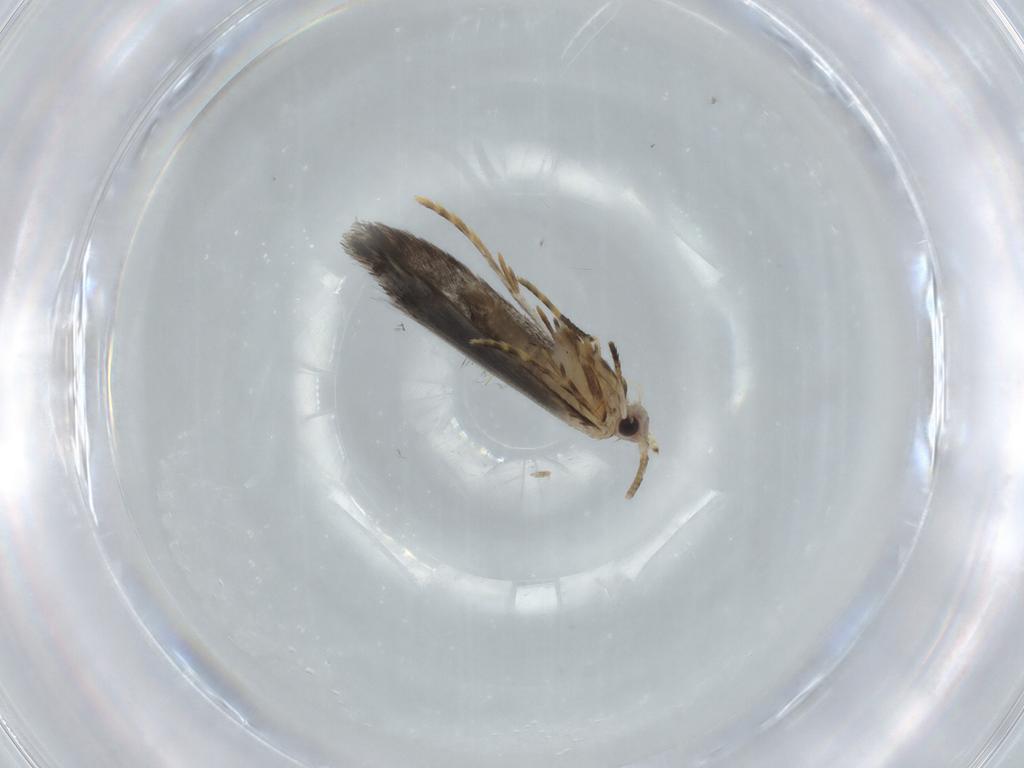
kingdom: Animalia
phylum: Arthropoda
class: Insecta
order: Lepidoptera
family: Tineidae
